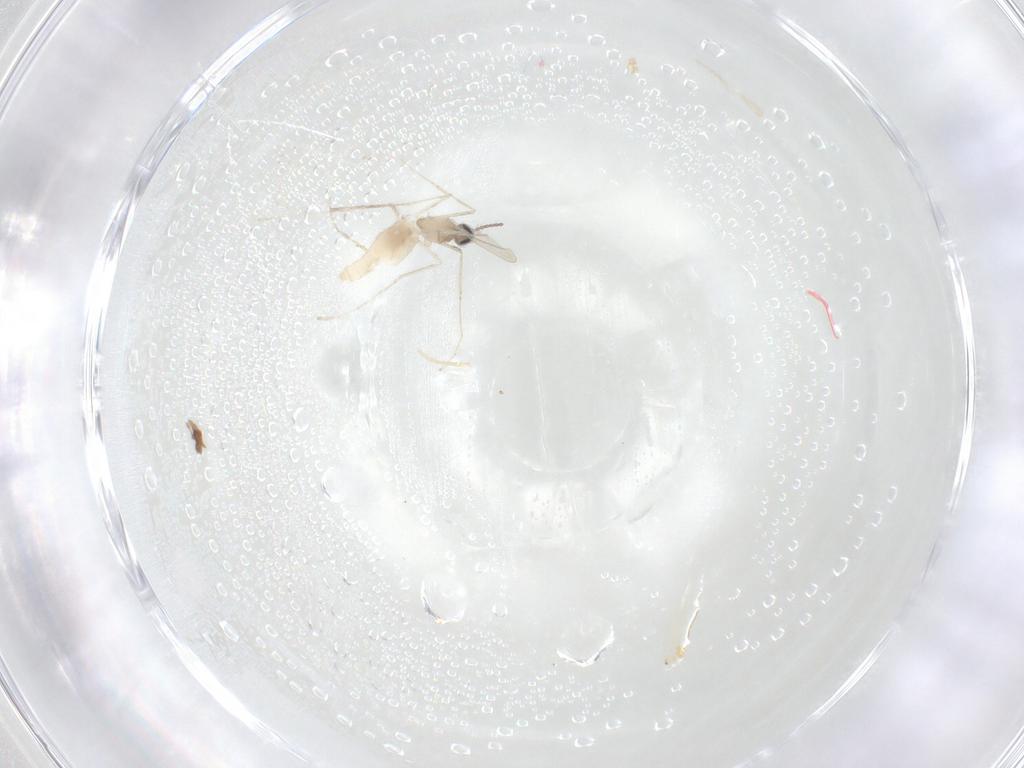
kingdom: Animalia
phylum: Arthropoda
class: Insecta
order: Diptera
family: Cecidomyiidae
